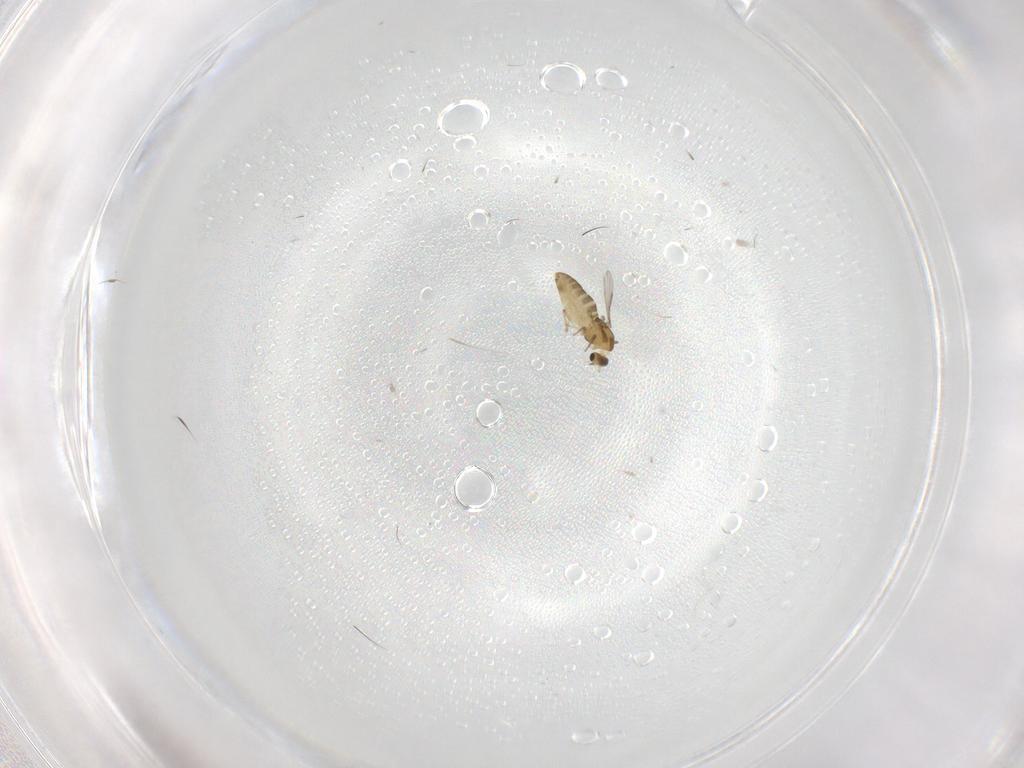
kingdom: Animalia
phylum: Arthropoda
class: Insecta
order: Diptera
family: Chironomidae
